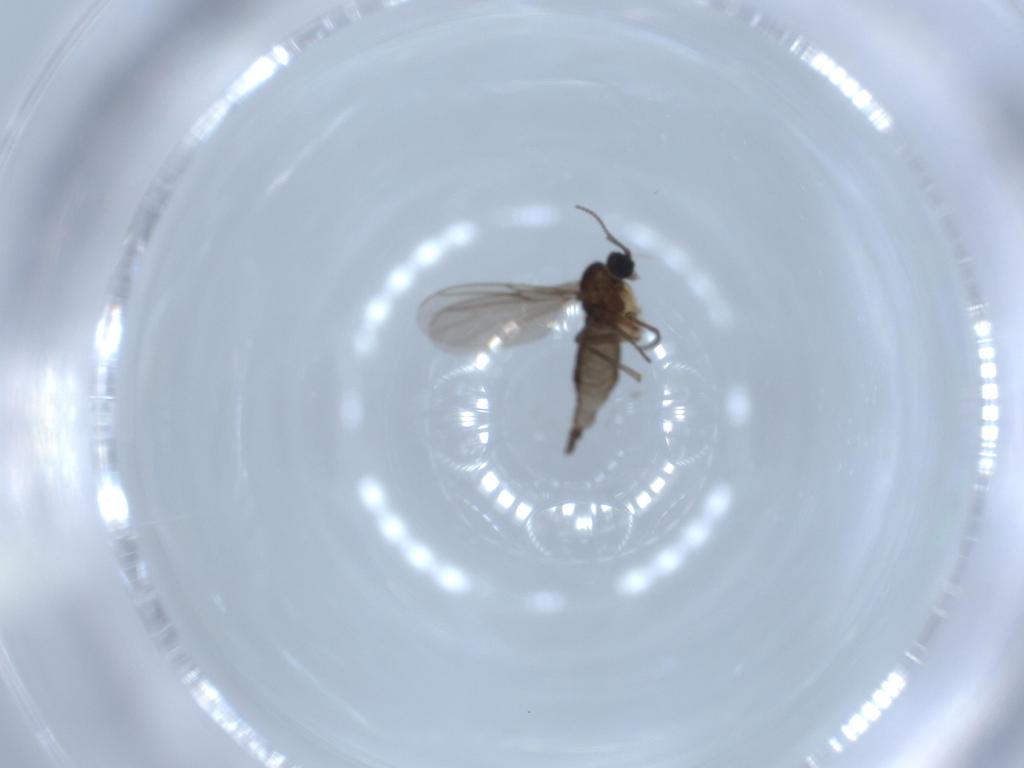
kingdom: Animalia
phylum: Arthropoda
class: Insecta
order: Diptera
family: Sciaridae
